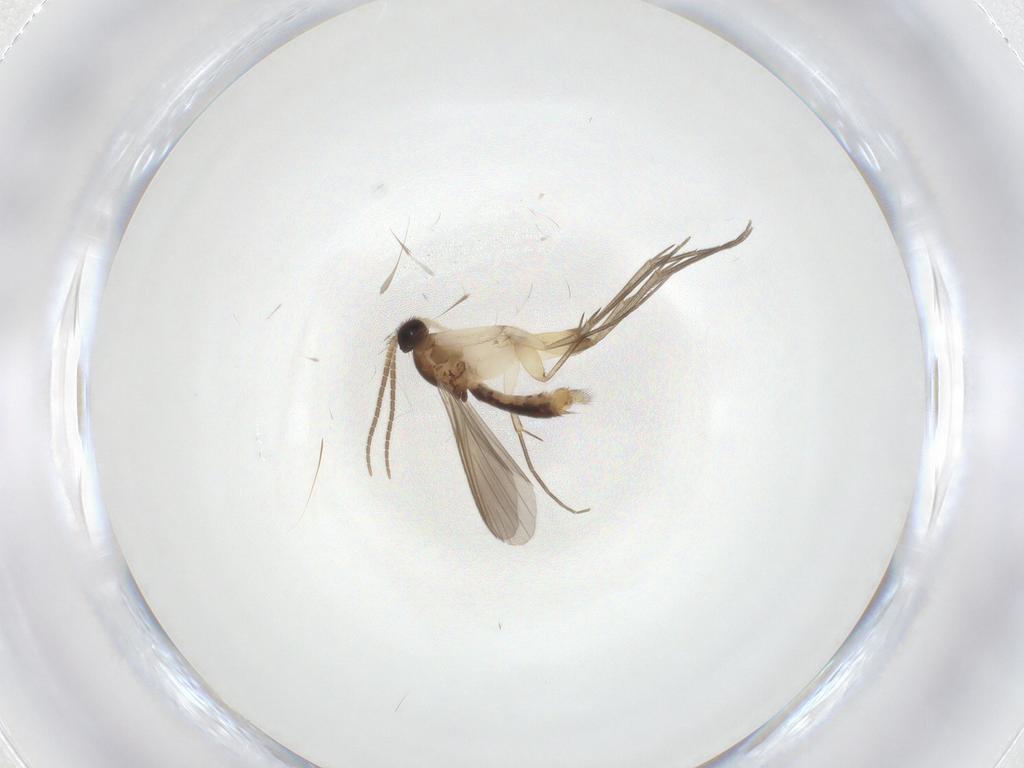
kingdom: Animalia
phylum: Arthropoda
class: Insecta
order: Diptera
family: Mycetophilidae
